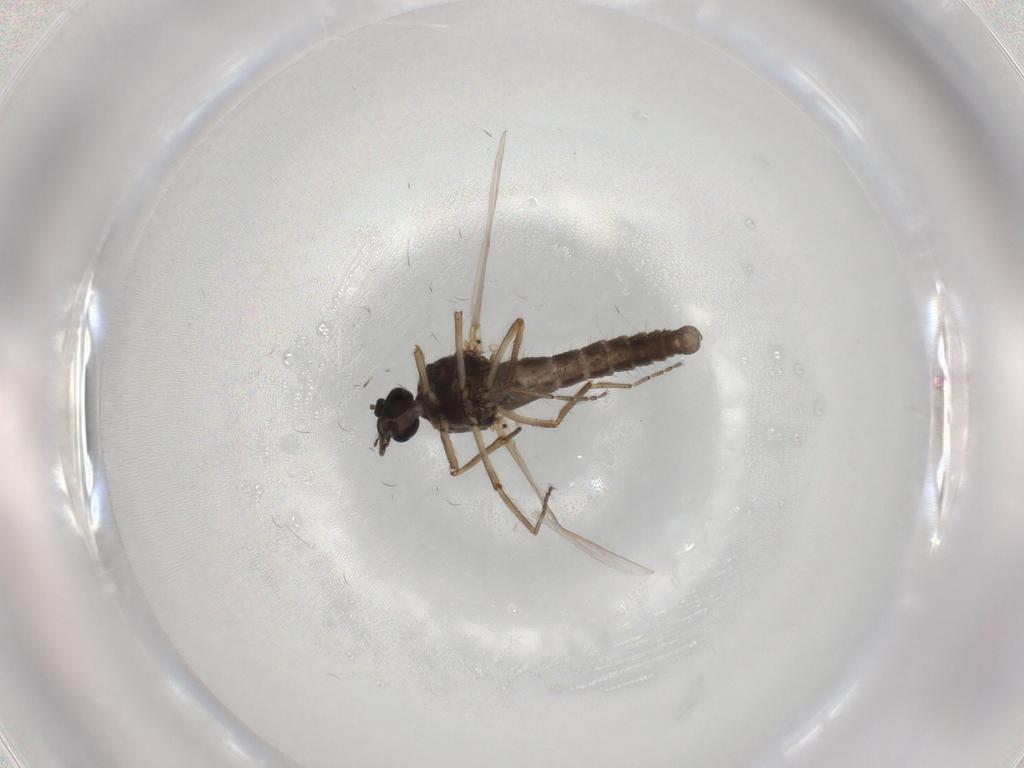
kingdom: Animalia
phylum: Arthropoda
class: Insecta
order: Diptera
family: Ceratopogonidae
